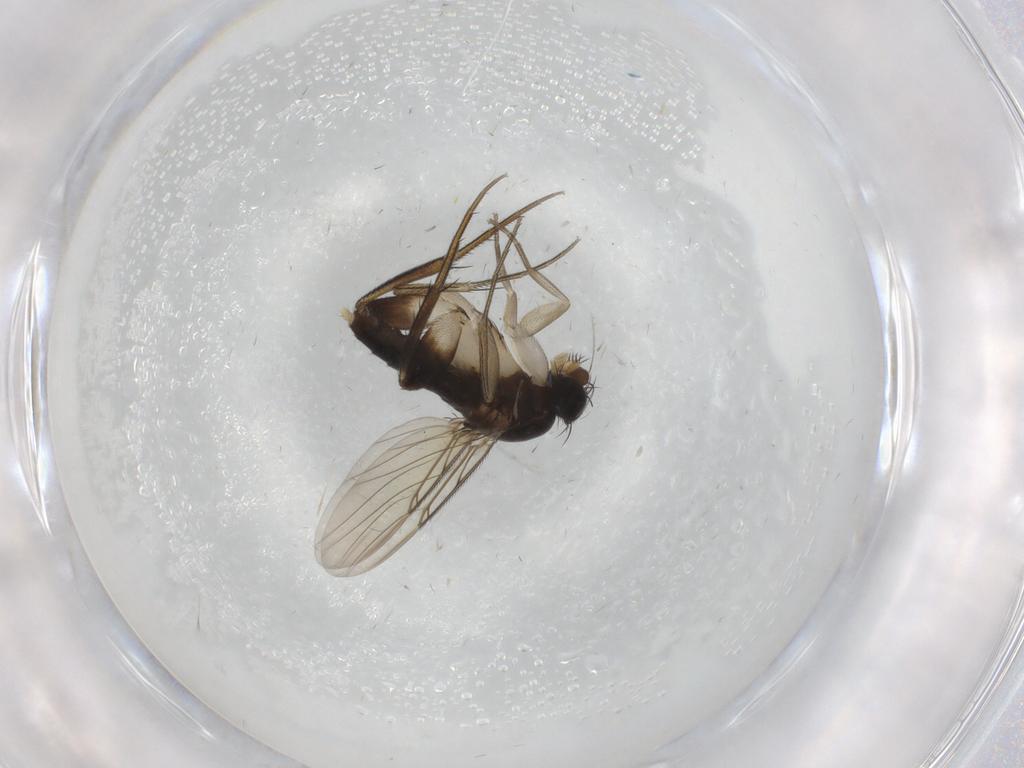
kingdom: Animalia
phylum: Arthropoda
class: Insecta
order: Diptera
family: Phoridae
